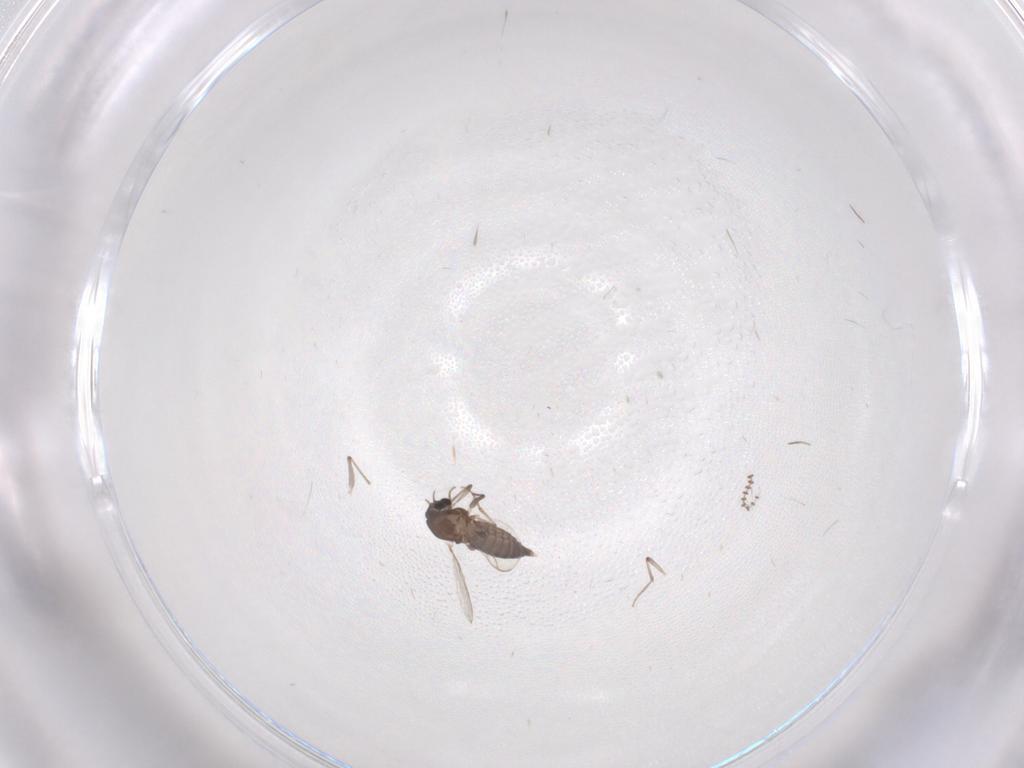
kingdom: Animalia
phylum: Arthropoda
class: Insecta
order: Diptera
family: Chironomidae
